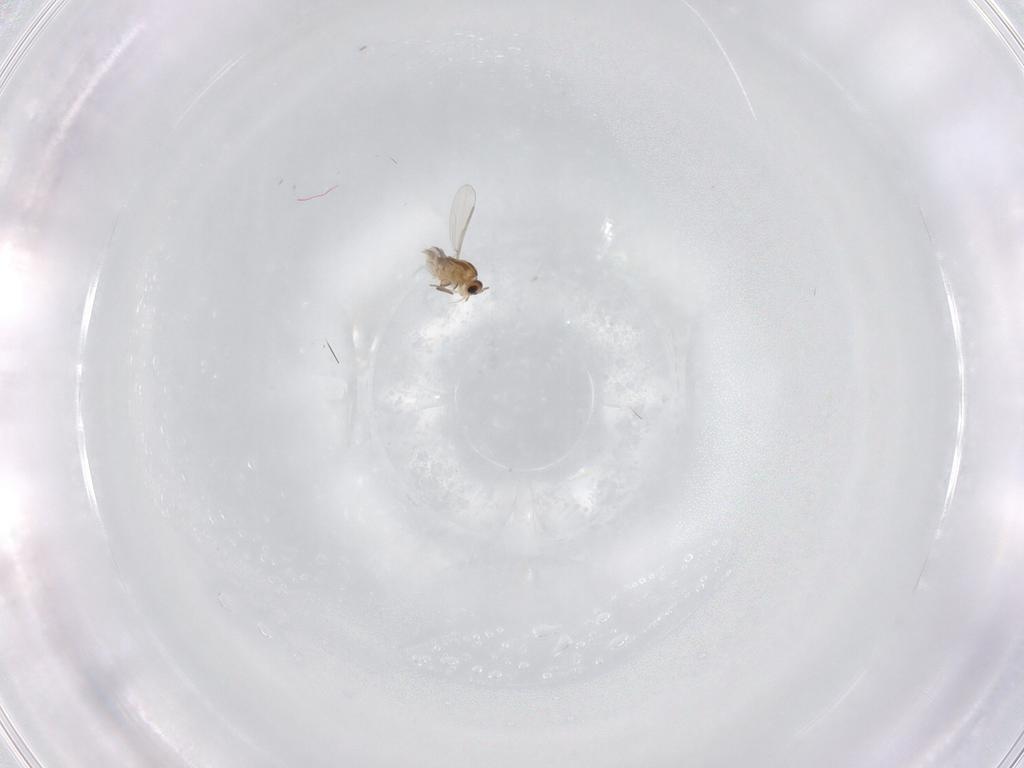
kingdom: Animalia
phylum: Arthropoda
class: Insecta
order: Diptera
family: Limoniidae
